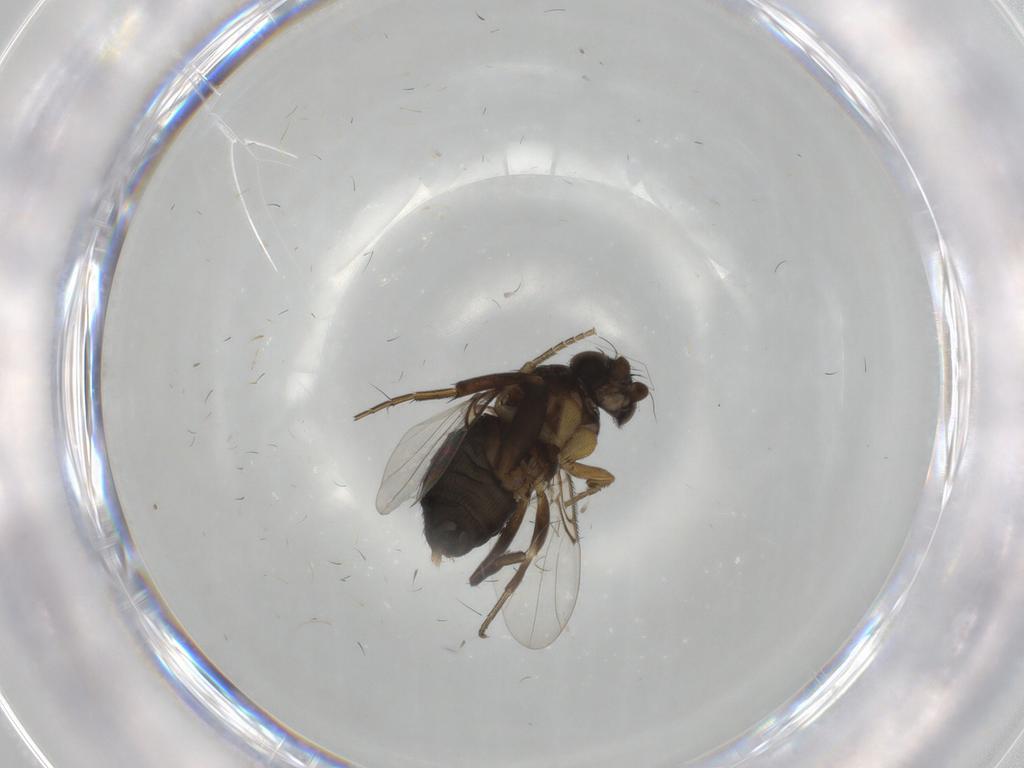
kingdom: Animalia
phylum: Arthropoda
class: Insecta
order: Diptera
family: Phoridae
